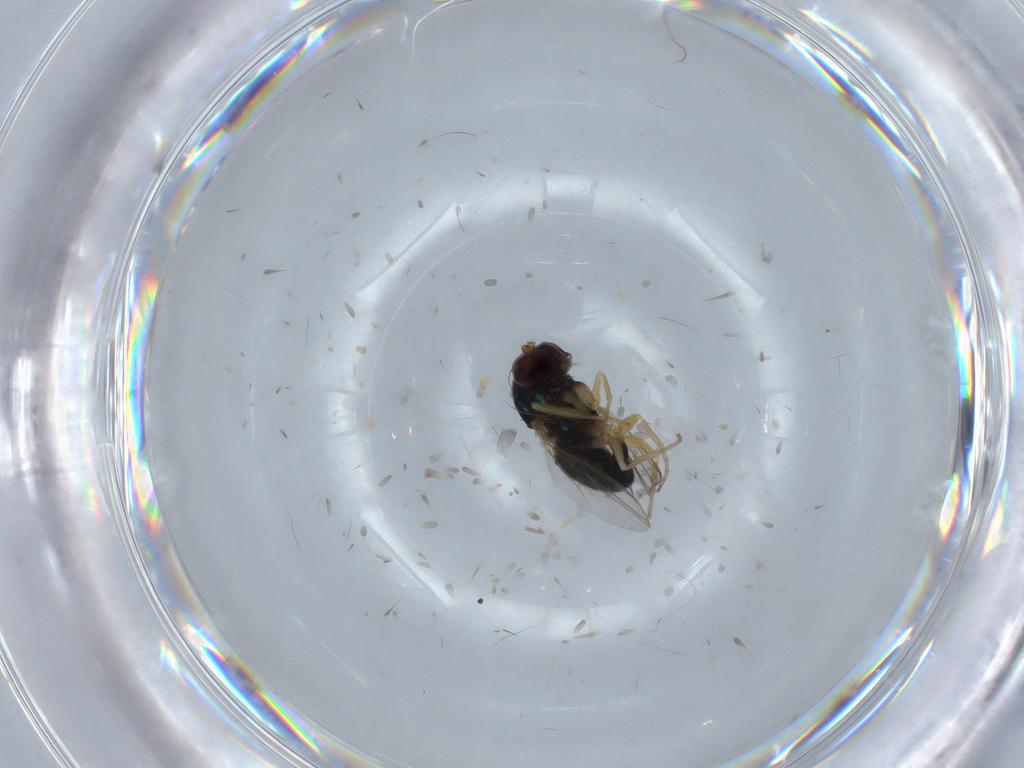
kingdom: Animalia
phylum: Arthropoda
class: Insecta
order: Diptera
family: Dolichopodidae
